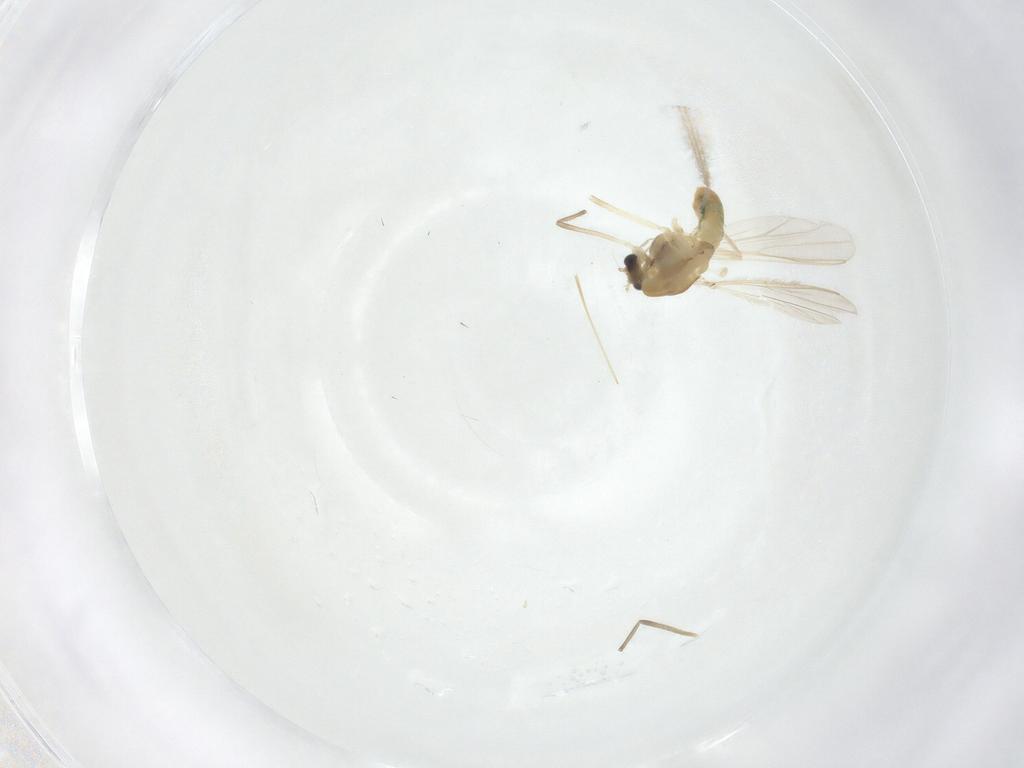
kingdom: Animalia
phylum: Arthropoda
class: Insecta
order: Diptera
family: Chironomidae
